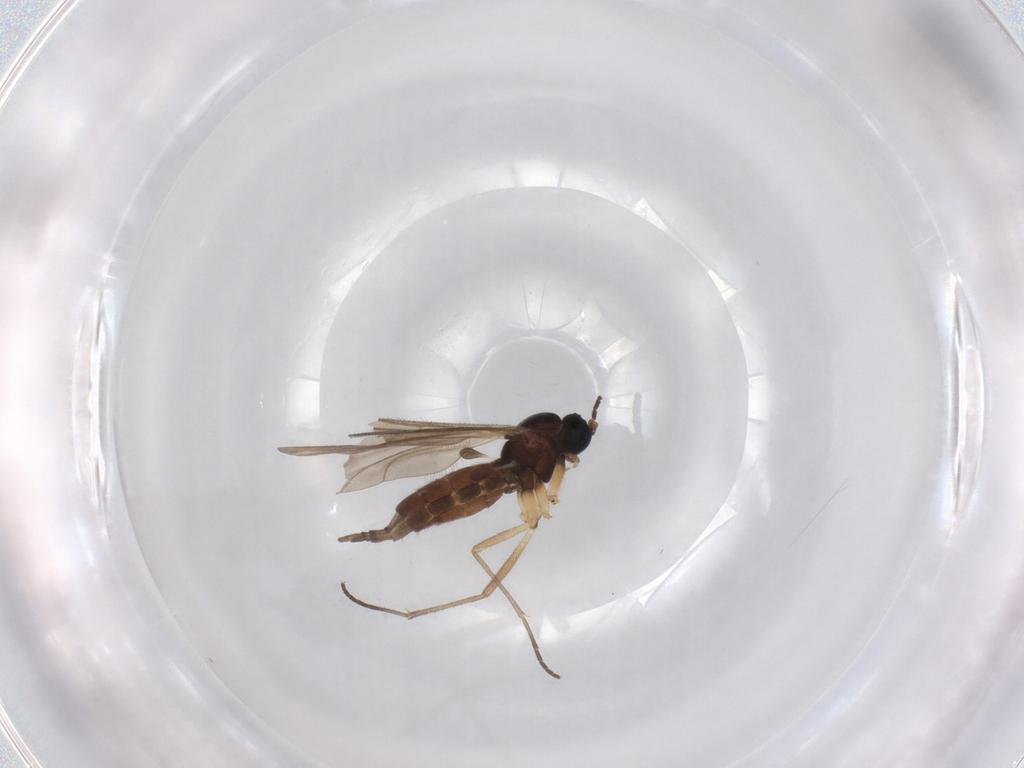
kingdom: Animalia
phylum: Arthropoda
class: Insecta
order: Diptera
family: Sciaridae
